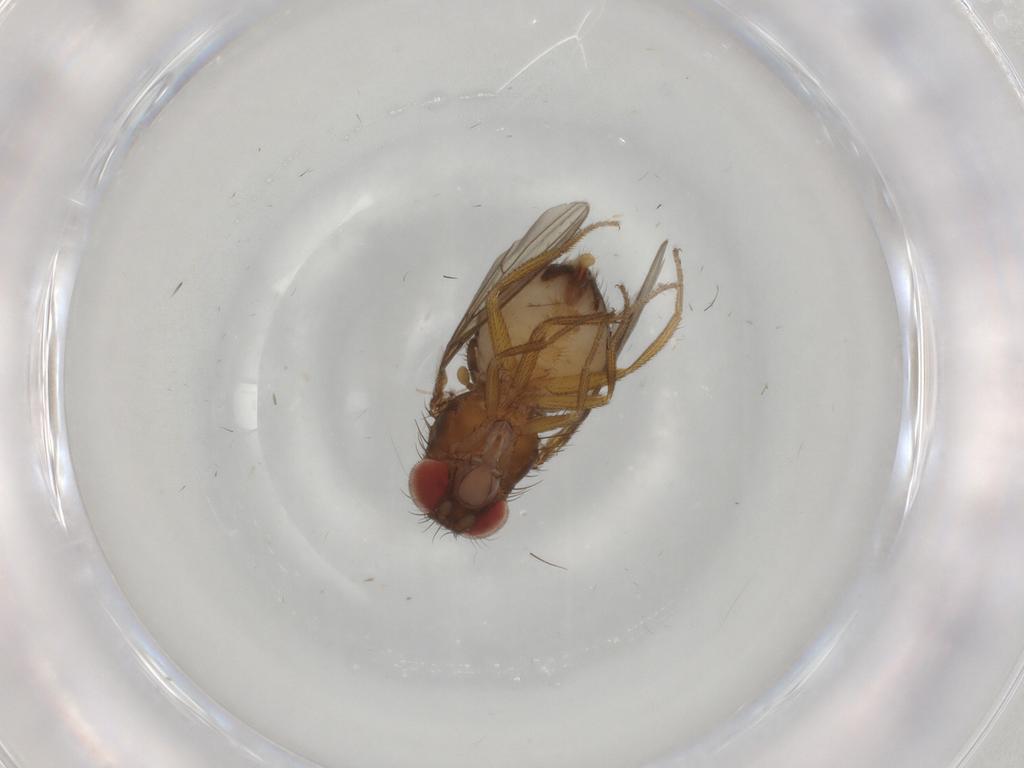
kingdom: Animalia
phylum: Arthropoda
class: Insecta
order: Diptera
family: Drosophilidae
